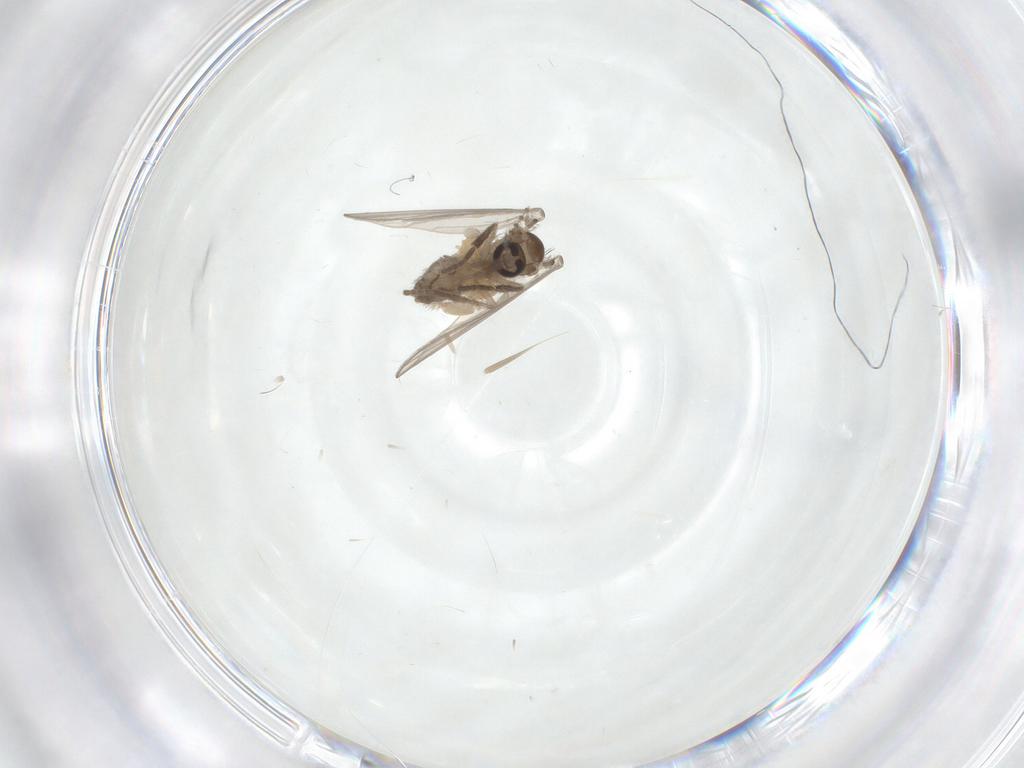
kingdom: Animalia
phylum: Arthropoda
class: Insecta
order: Diptera
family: Psychodidae
